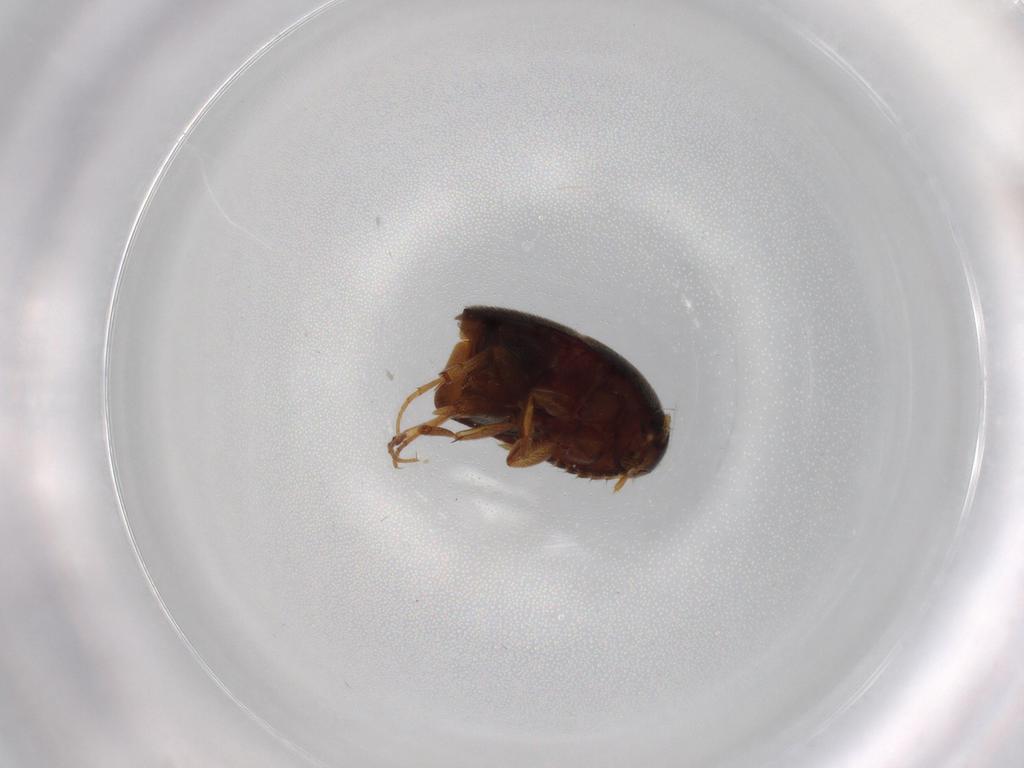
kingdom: Animalia
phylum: Arthropoda
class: Insecta
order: Coleoptera
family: Staphylinidae
